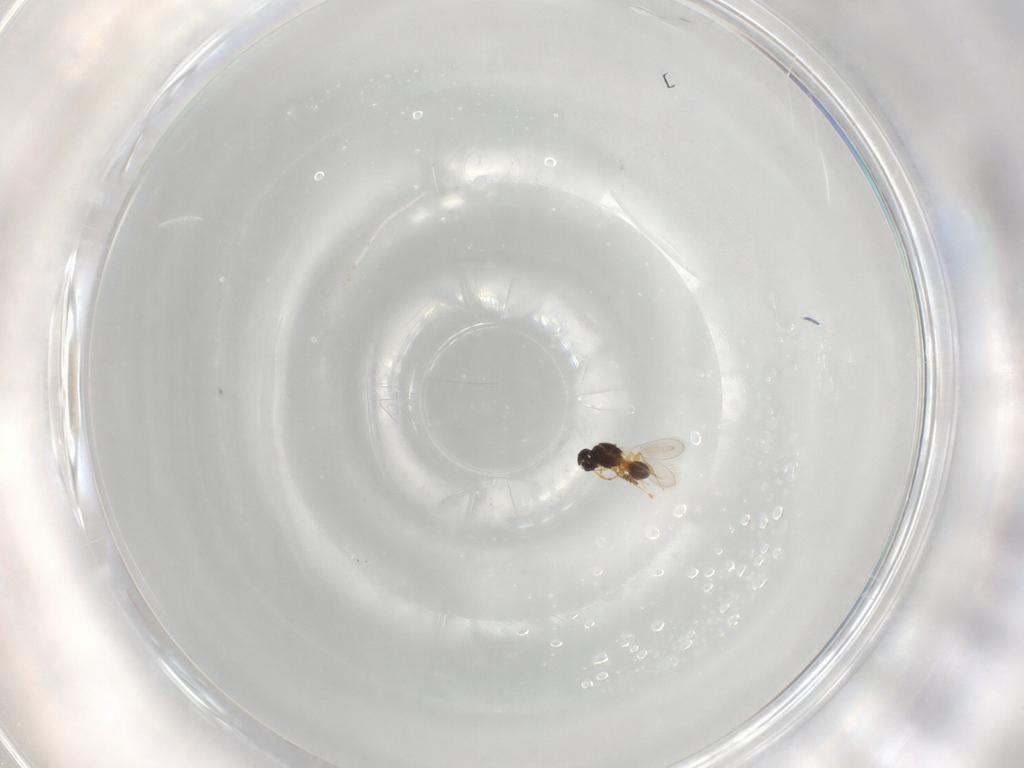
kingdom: Animalia
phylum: Arthropoda
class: Insecta
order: Hymenoptera
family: Platygastridae
